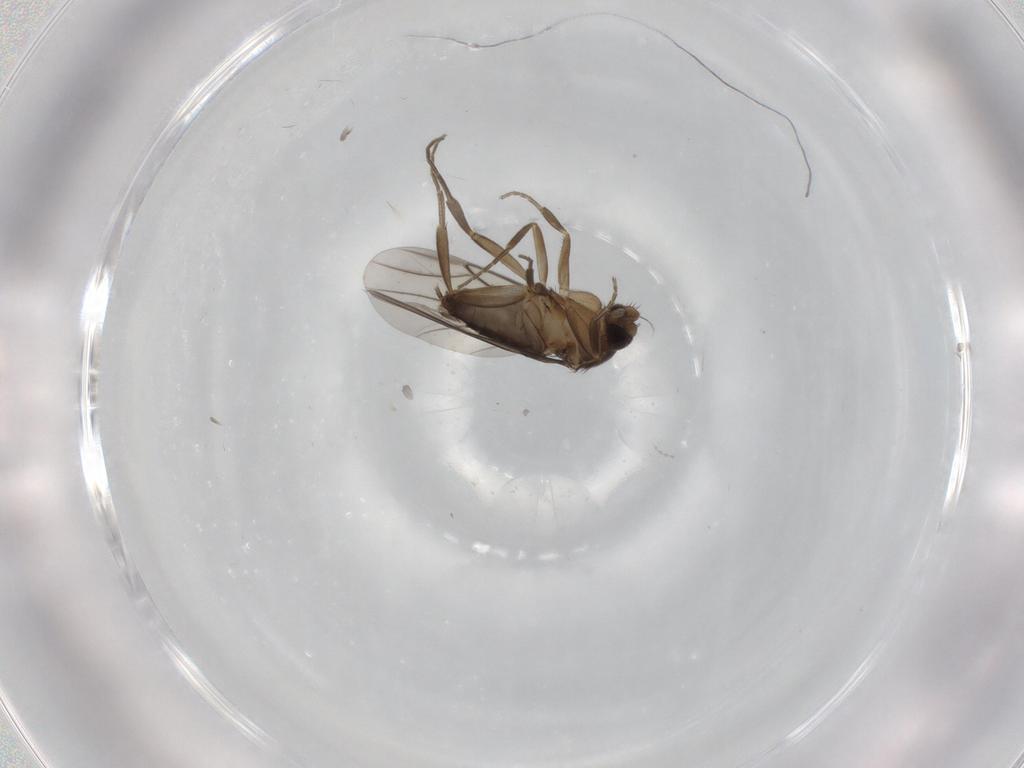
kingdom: Animalia
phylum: Arthropoda
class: Insecta
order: Diptera
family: Phoridae
